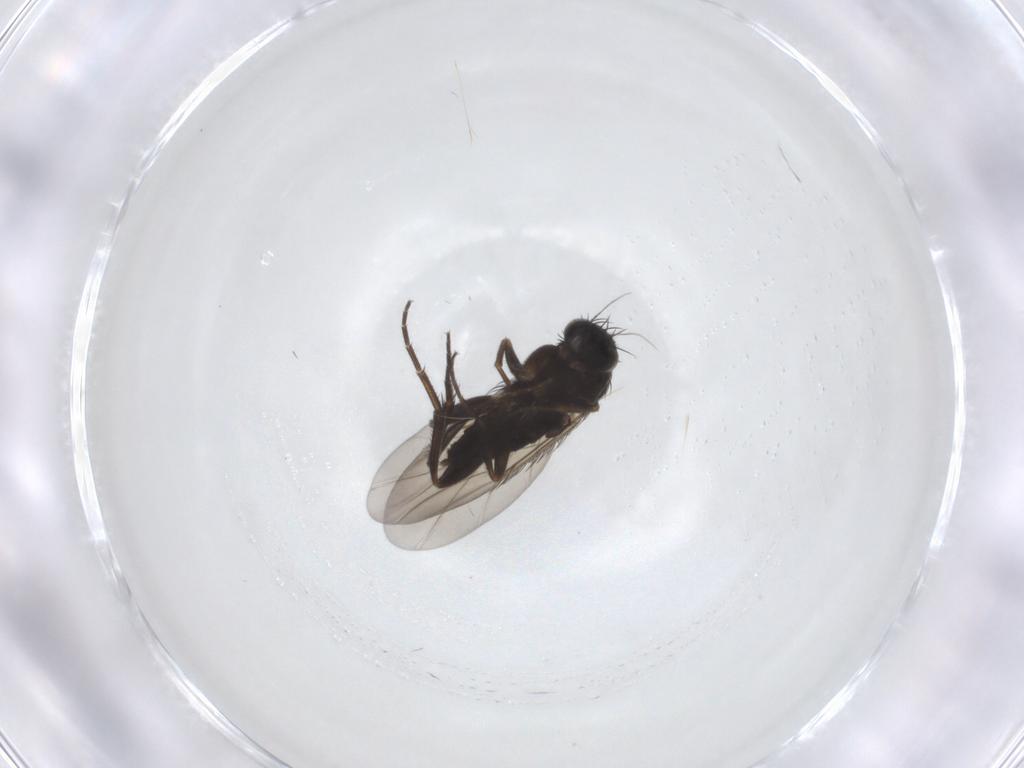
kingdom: Animalia
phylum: Arthropoda
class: Insecta
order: Diptera
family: Phoridae
